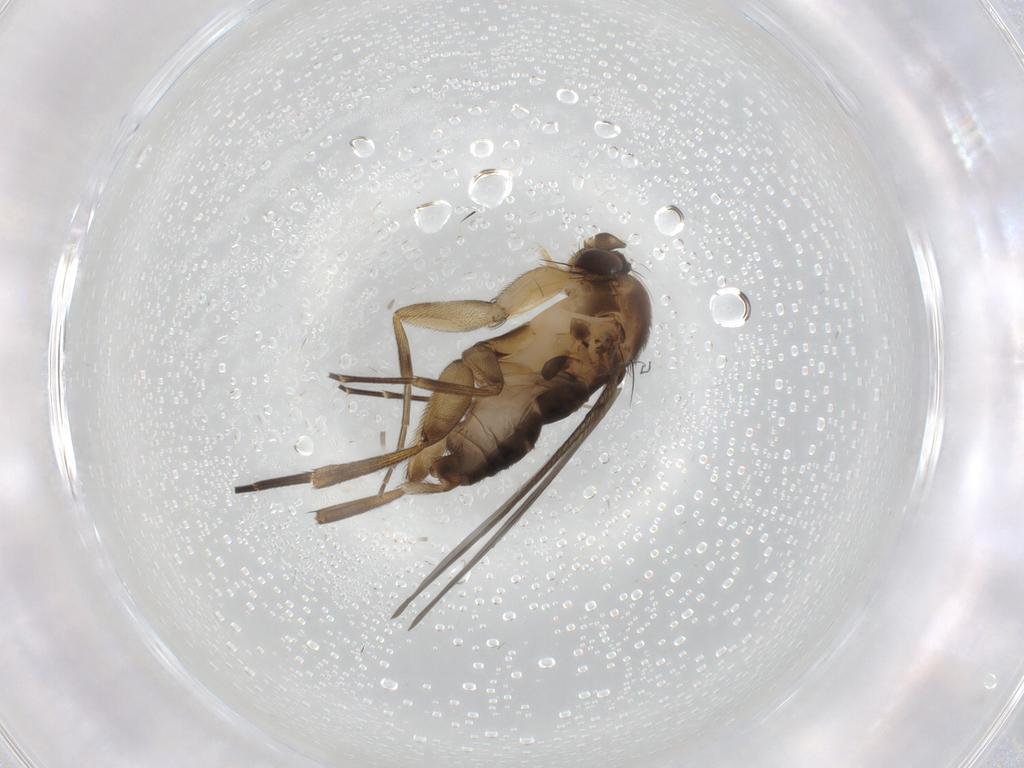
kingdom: Animalia
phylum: Arthropoda
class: Insecta
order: Diptera
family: Phoridae
